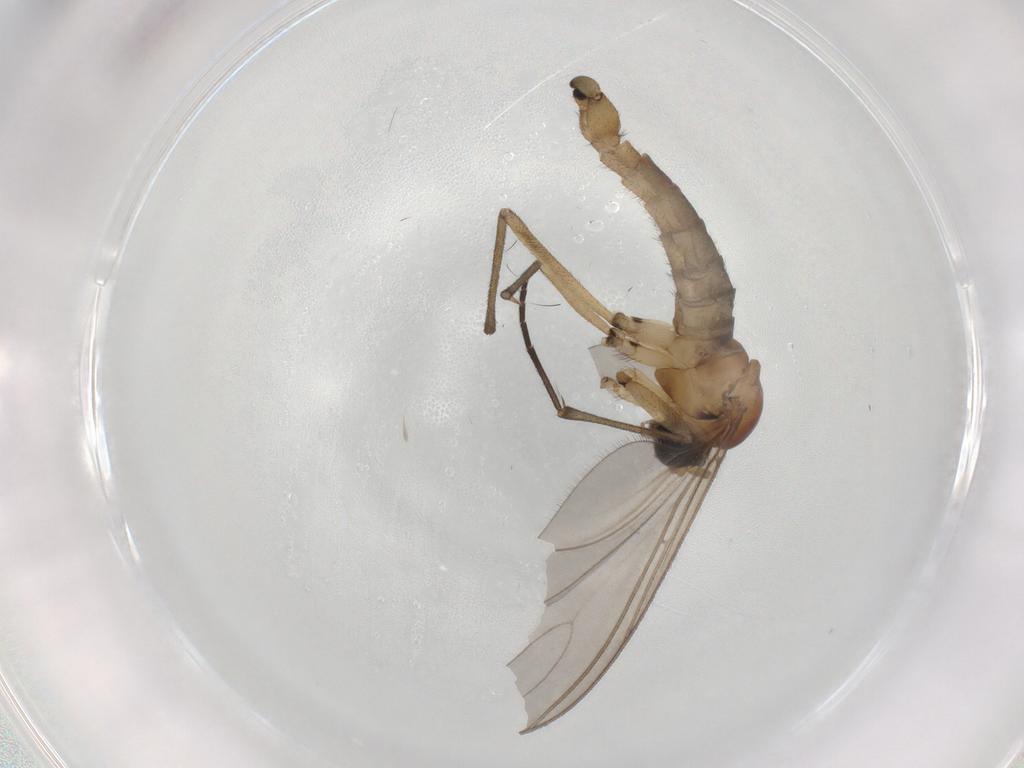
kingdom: Animalia
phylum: Arthropoda
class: Insecta
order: Diptera
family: Sciaridae
